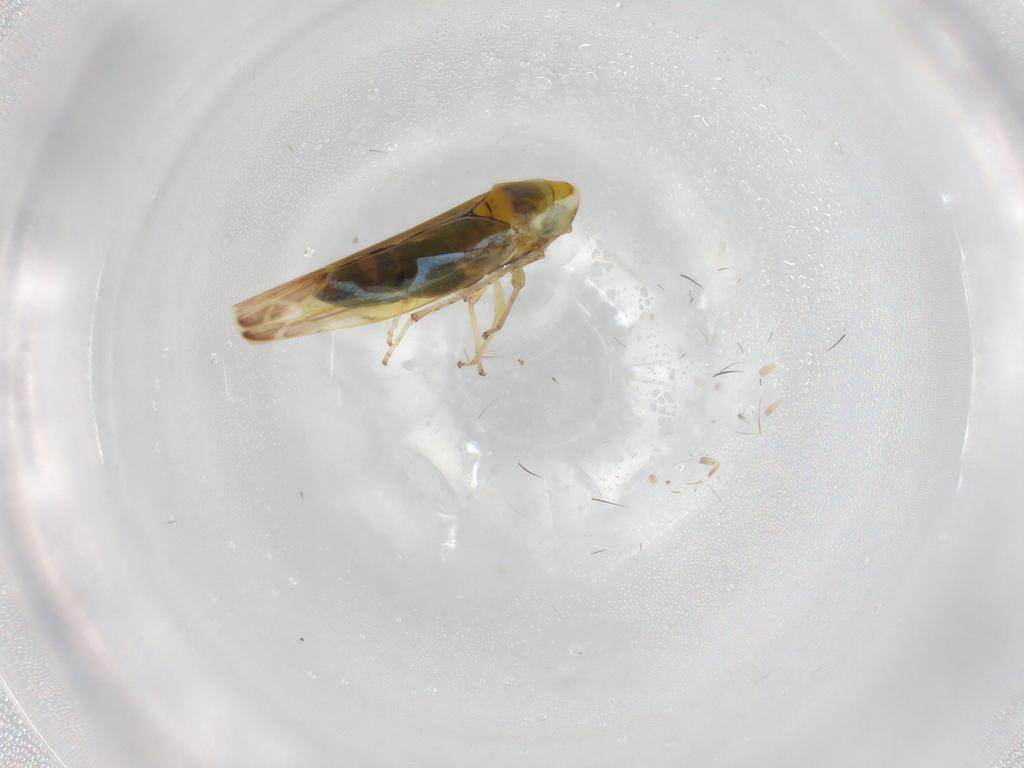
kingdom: Animalia
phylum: Arthropoda
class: Insecta
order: Hemiptera
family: Cicadellidae
